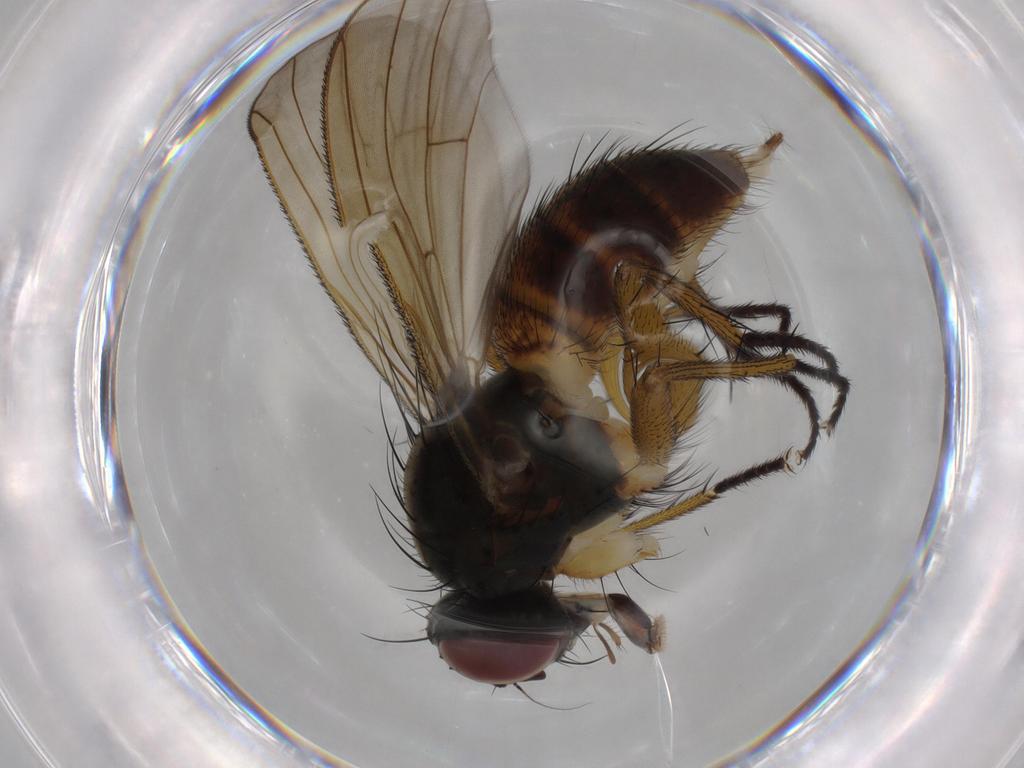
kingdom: Animalia
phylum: Arthropoda
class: Insecta
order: Diptera
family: Muscidae
